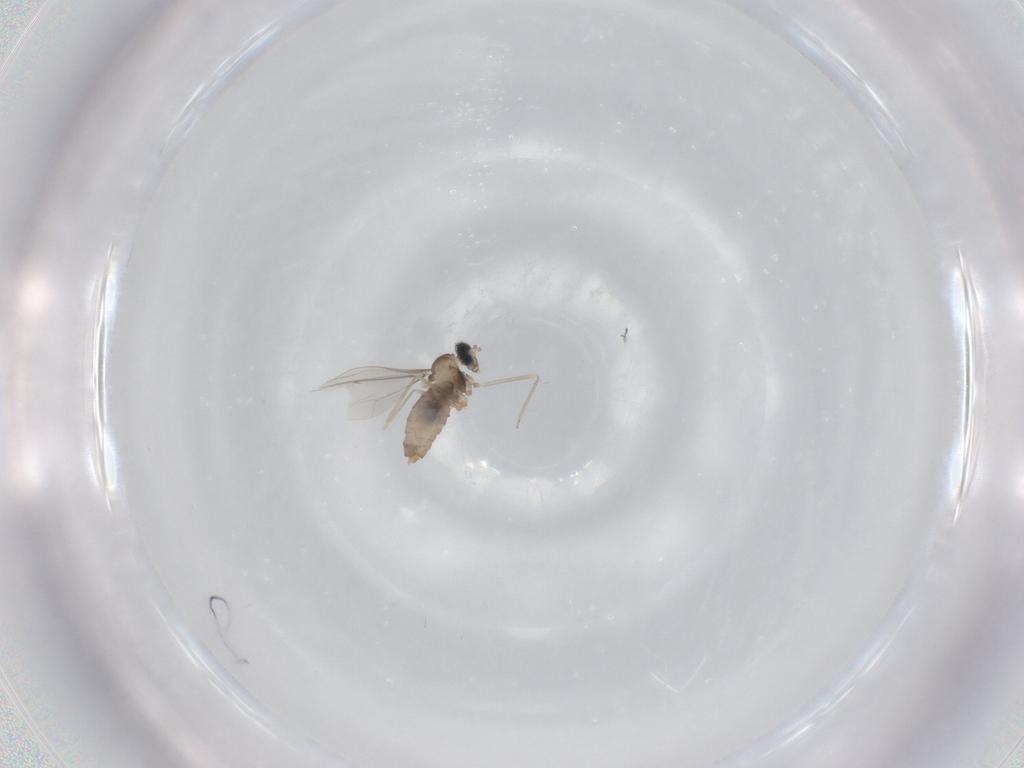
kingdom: Animalia
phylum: Arthropoda
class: Insecta
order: Diptera
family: Cecidomyiidae
